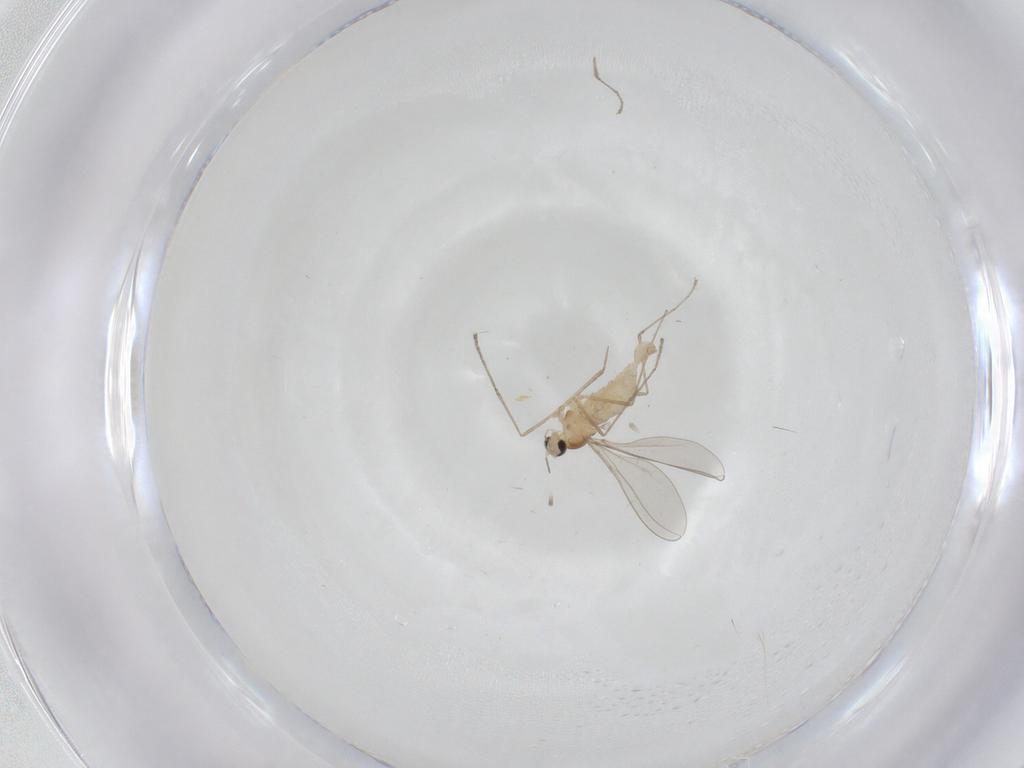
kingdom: Animalia
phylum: Arthropoda
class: Insecta
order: Diptera
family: Cecidomyiidae
